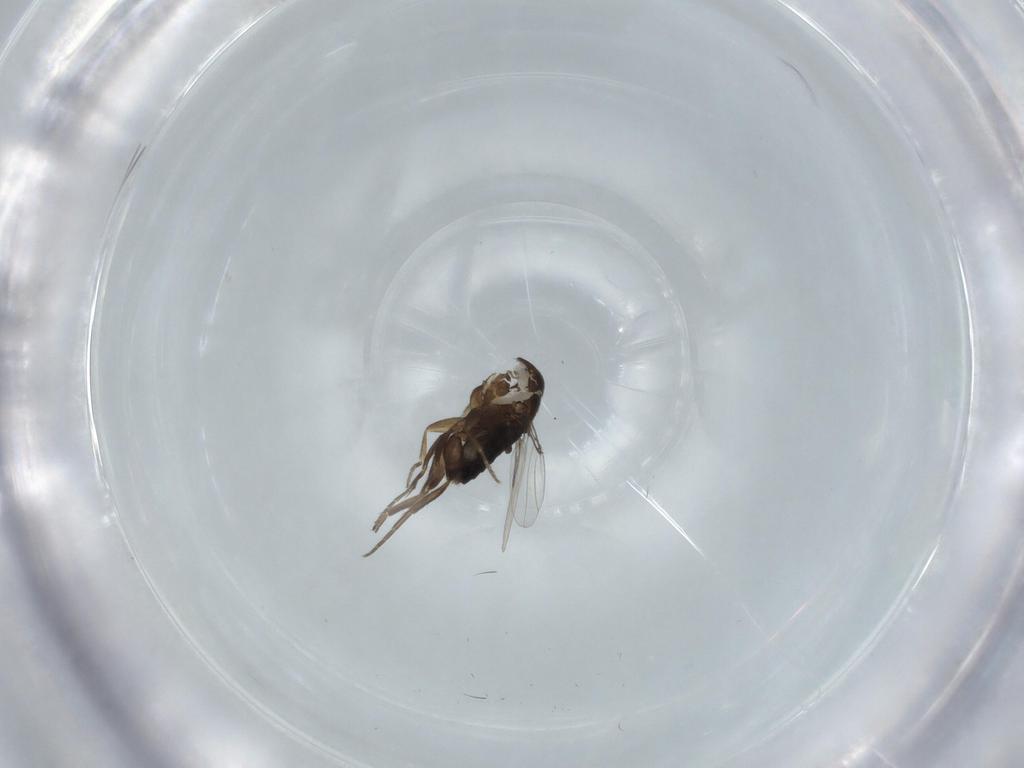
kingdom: Animalia
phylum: Arthropoda
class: Insecta
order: Diptera
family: Phoridae
